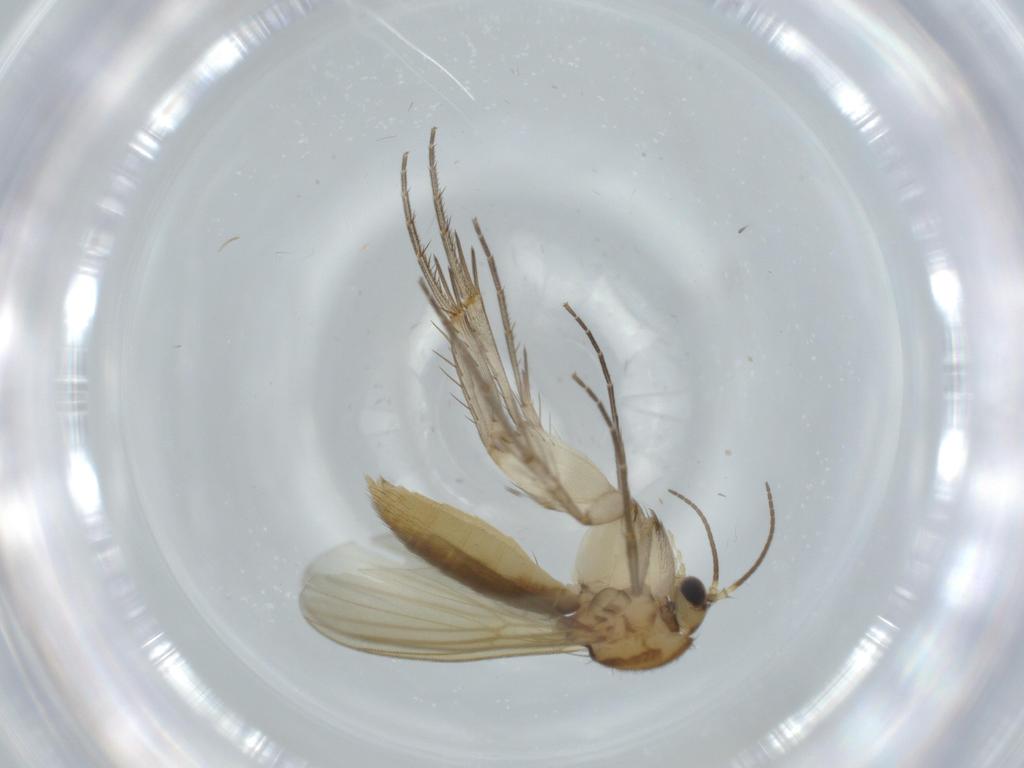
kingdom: Animalia
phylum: Arthropoda
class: Insecta
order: Diptera
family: Mycetophilidae
